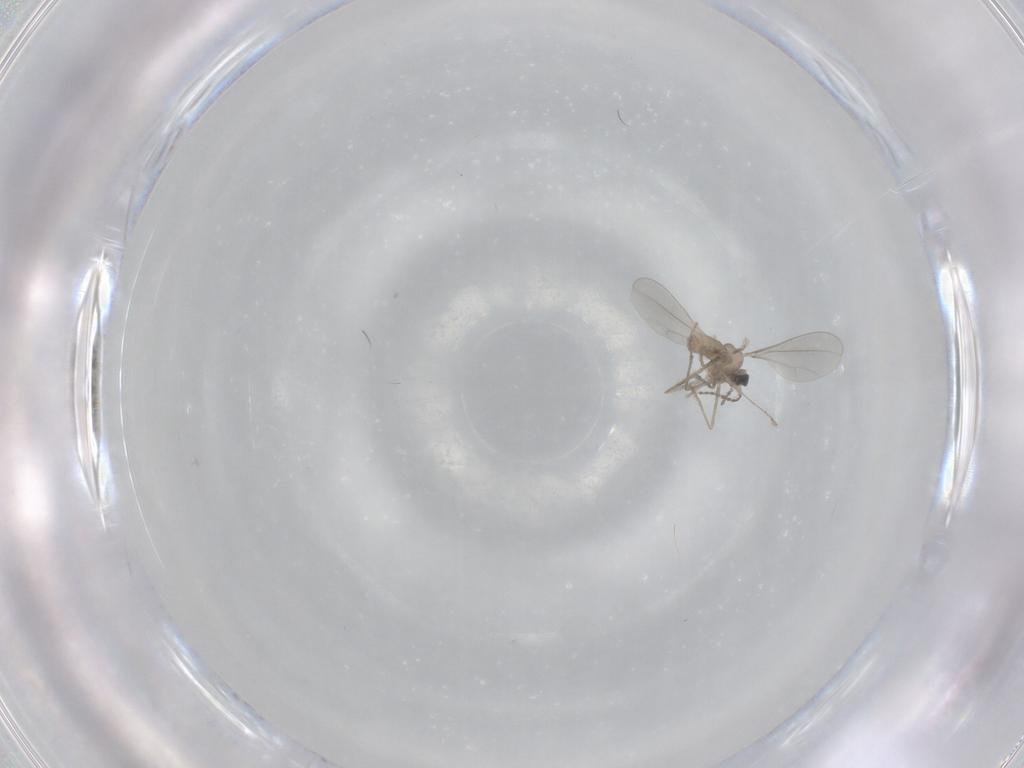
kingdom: Animalia
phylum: Arthropoda
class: Insecta
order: Diptera
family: Cecidomyiidae
